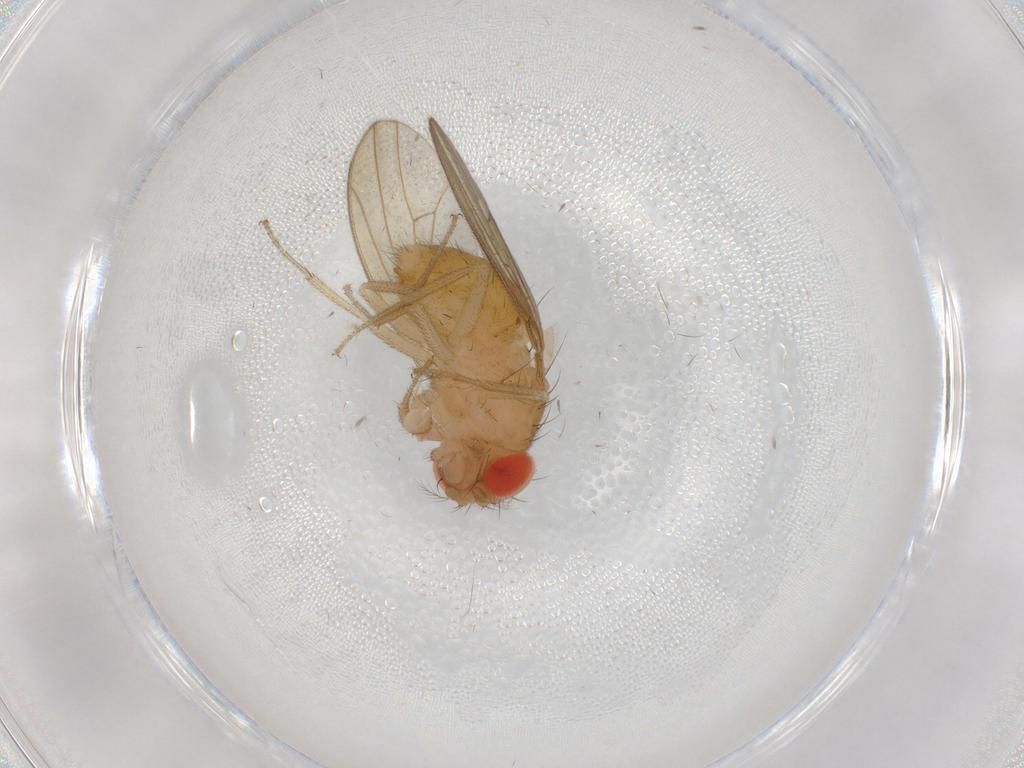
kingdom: Animalia
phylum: Arthropoda
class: Insecta
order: Diptera
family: Drosophilidae
